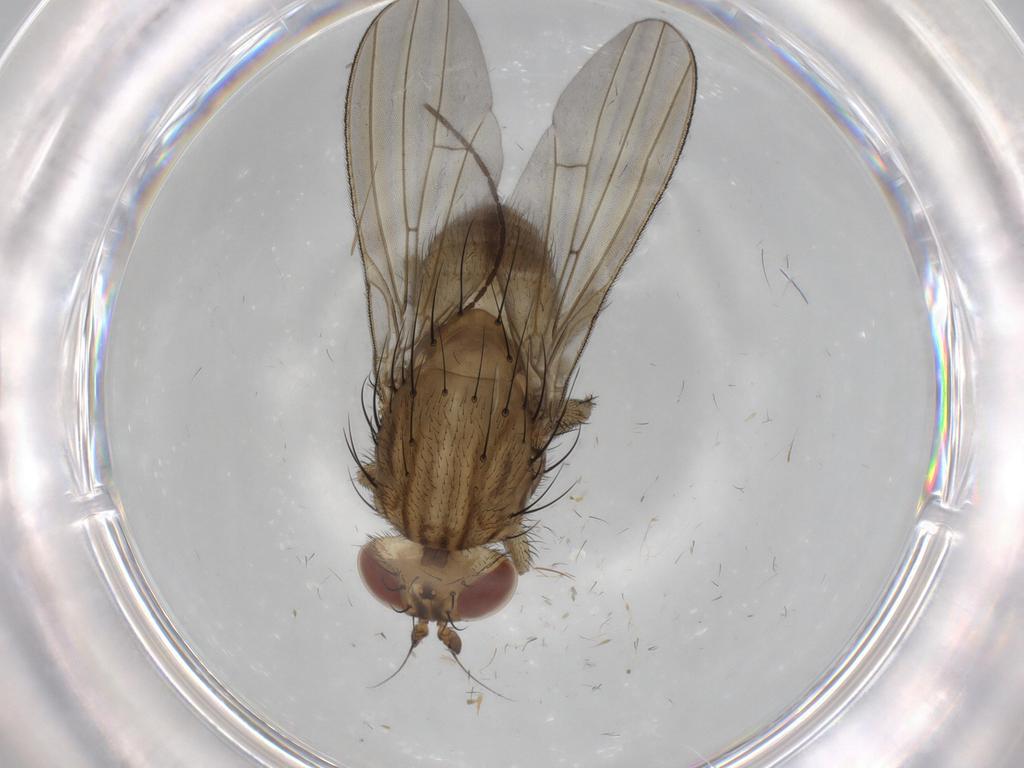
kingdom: Animalia
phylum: Arthropoda
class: Insecta
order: Diptera
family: Limoniidae
